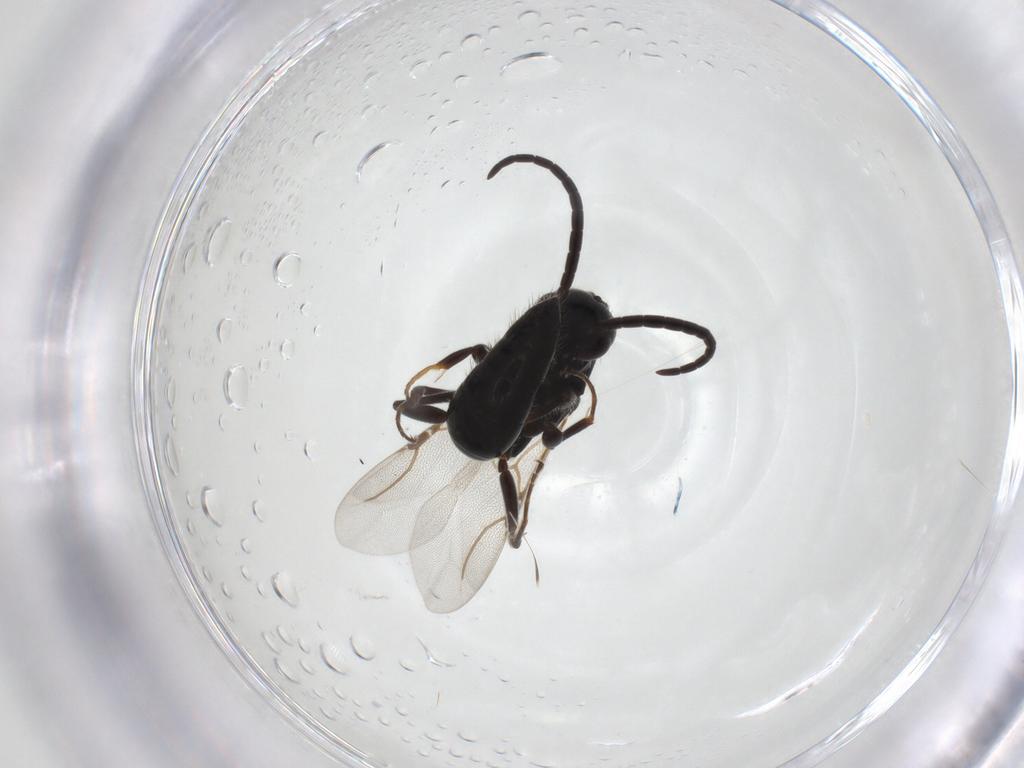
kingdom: Animalia
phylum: Arthropoda
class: Insecta
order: Hymenoptera
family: Bethylidae
